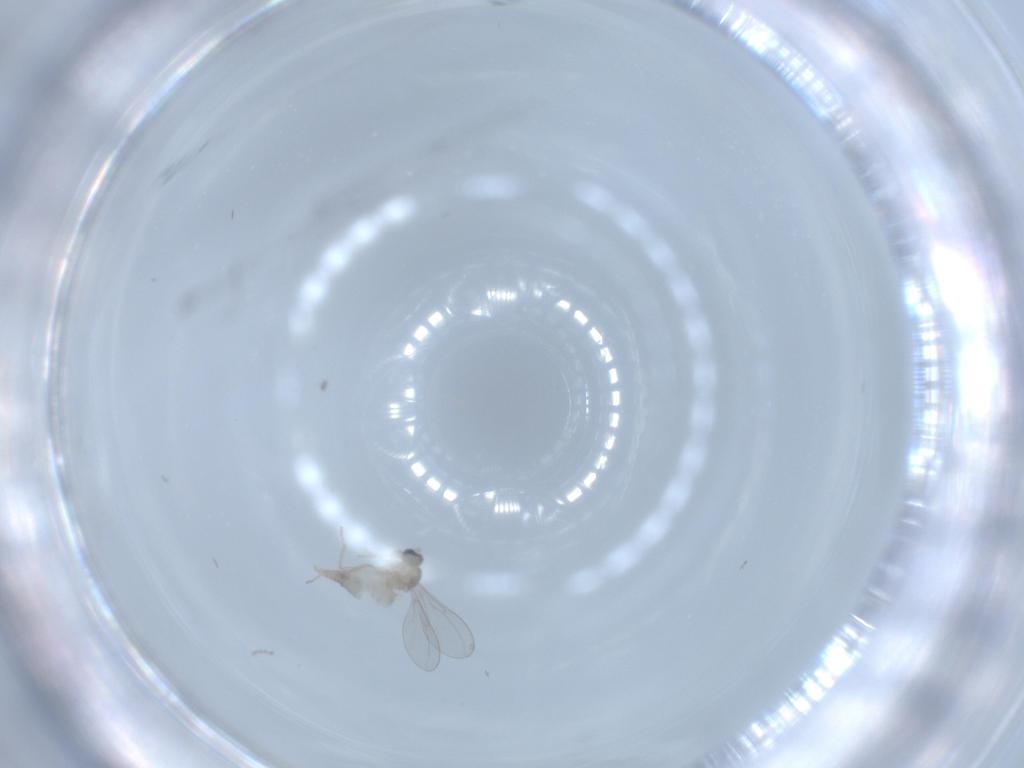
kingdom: Animalia
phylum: Arthropoda
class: Insecta
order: Diptera
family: Cecidomyiidae
